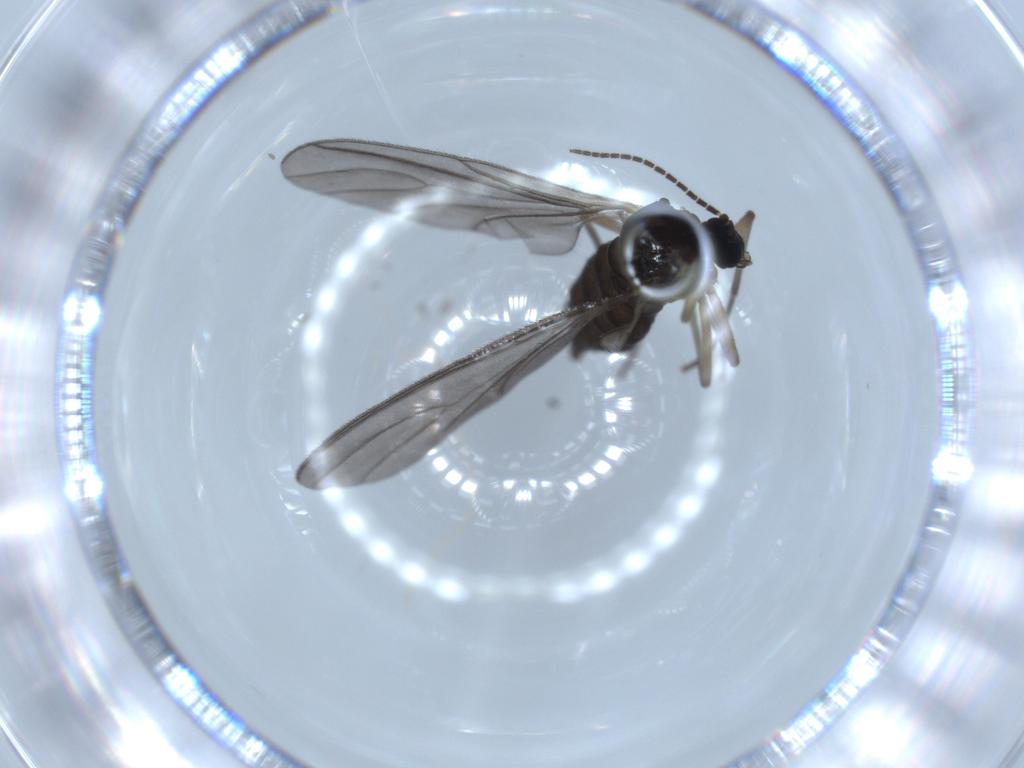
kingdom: Animalia
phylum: Arthropoda
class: Insecta
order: Diptera
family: Sciaridae
